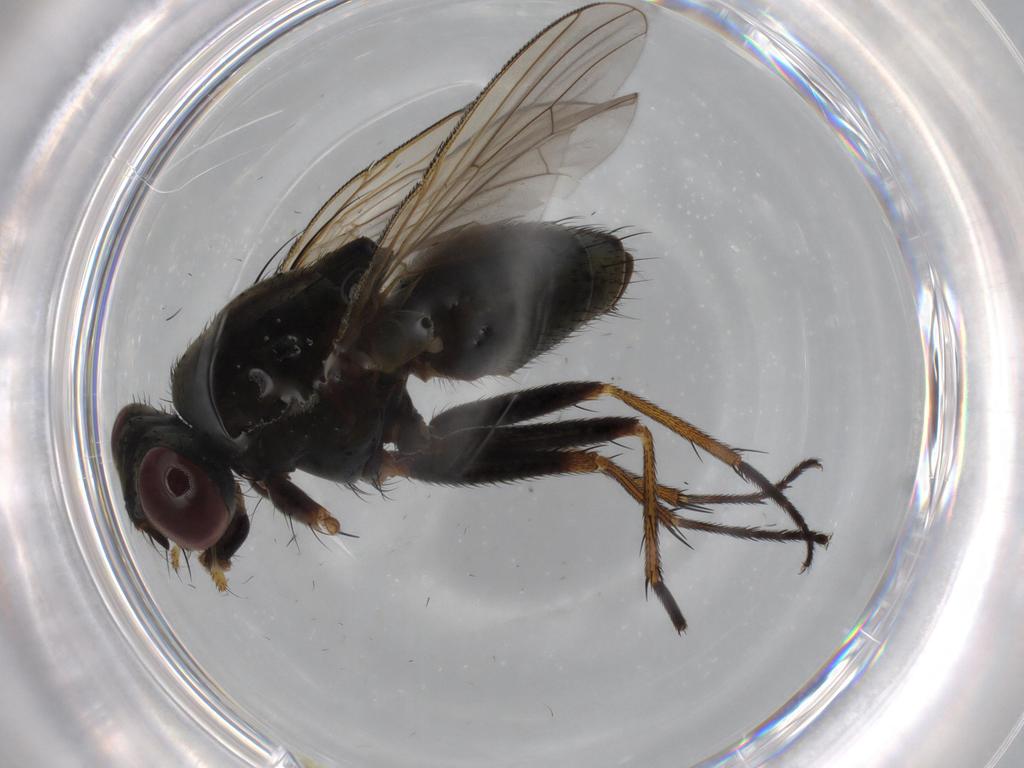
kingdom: Animalia
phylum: Arthropoda
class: Insecta
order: Diptera
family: Muscidae
